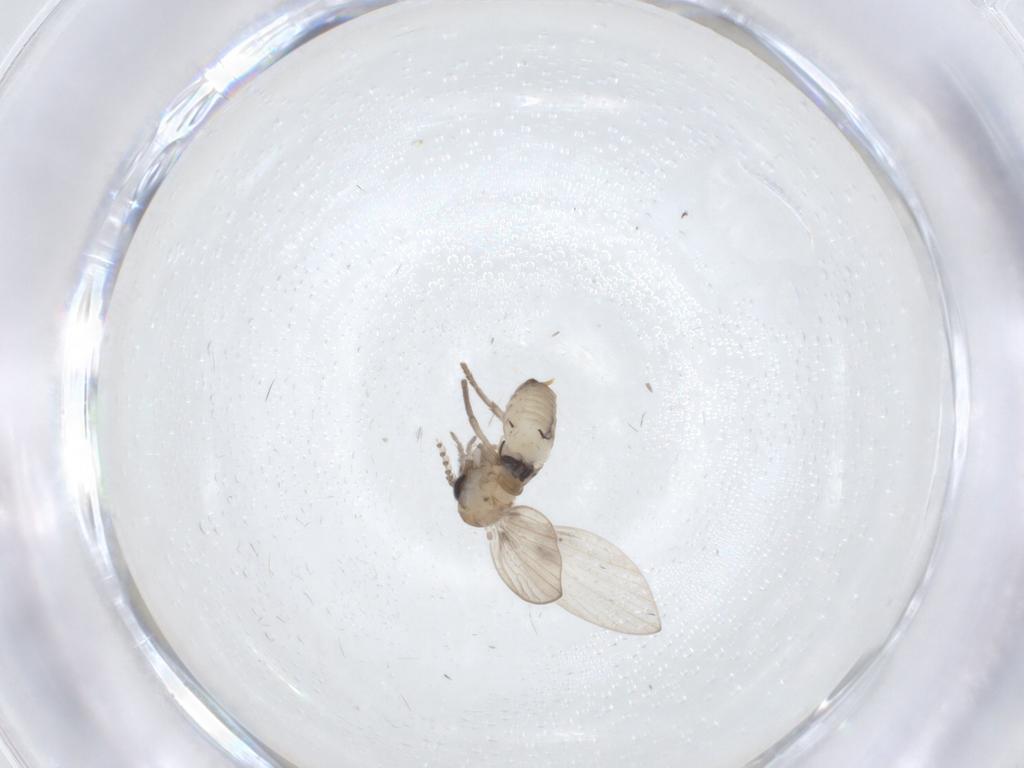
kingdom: Animalia
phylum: Arthropoda
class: Insecta
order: Diptera
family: Psychodidae
